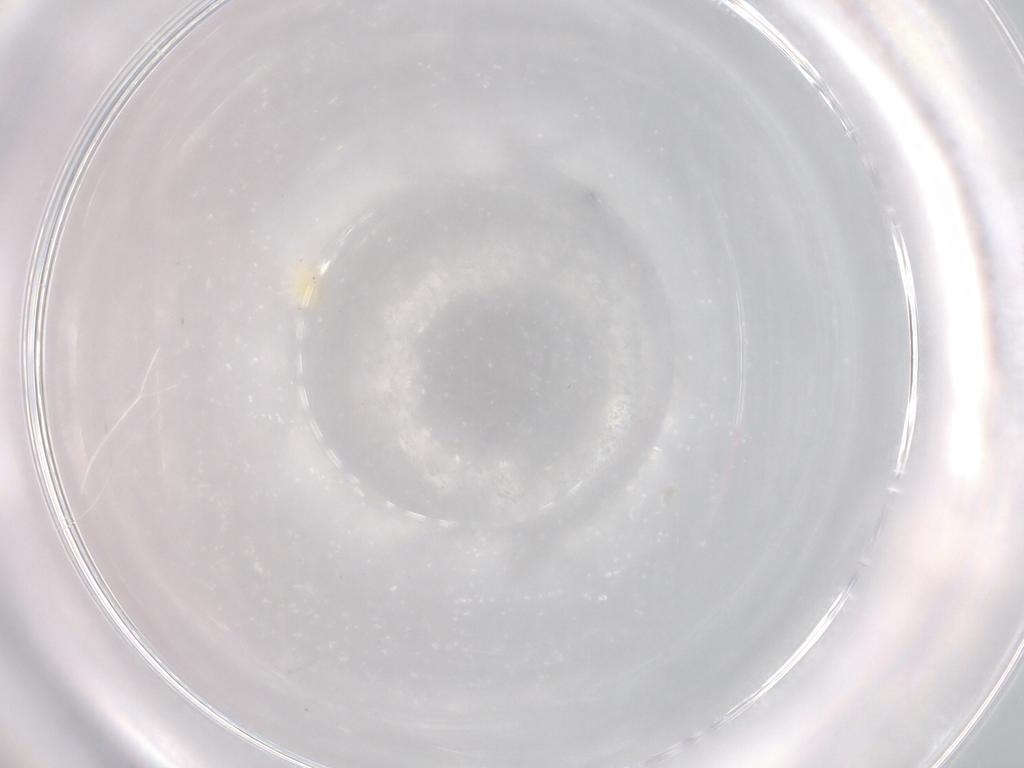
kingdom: Animalia
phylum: Arthropoda
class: Arachnida
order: Sarcoptiformes
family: Eremaeidae
